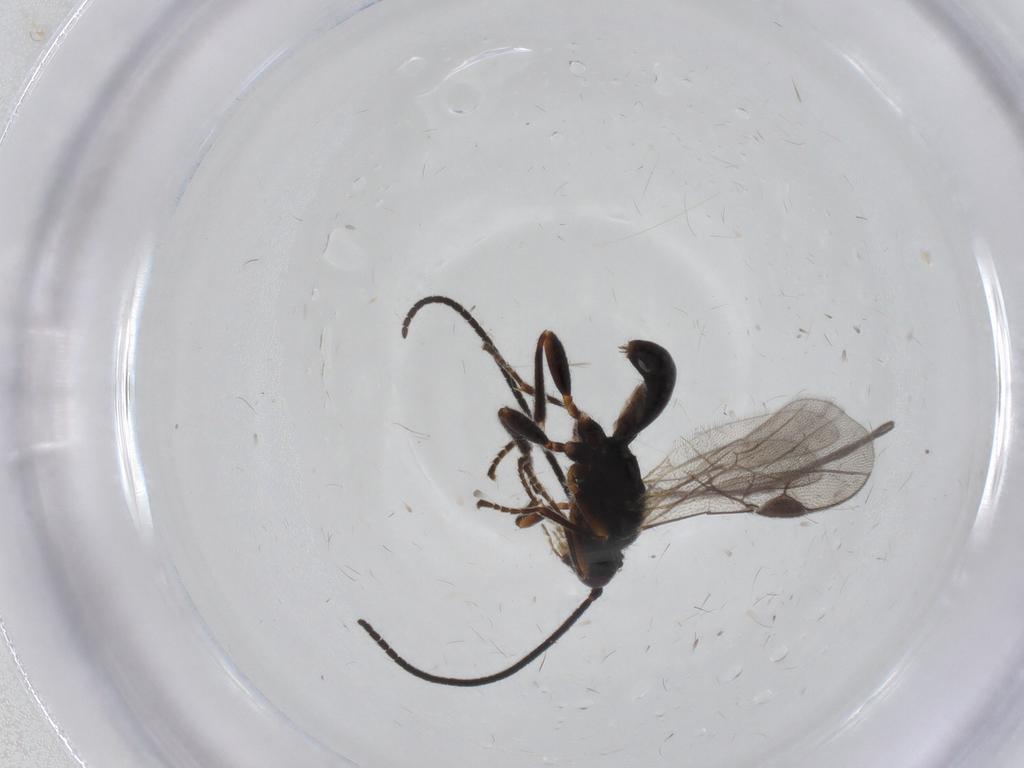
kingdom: Animalia
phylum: Arthropoda
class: Insecta
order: Hymenoptera
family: Braconidae
